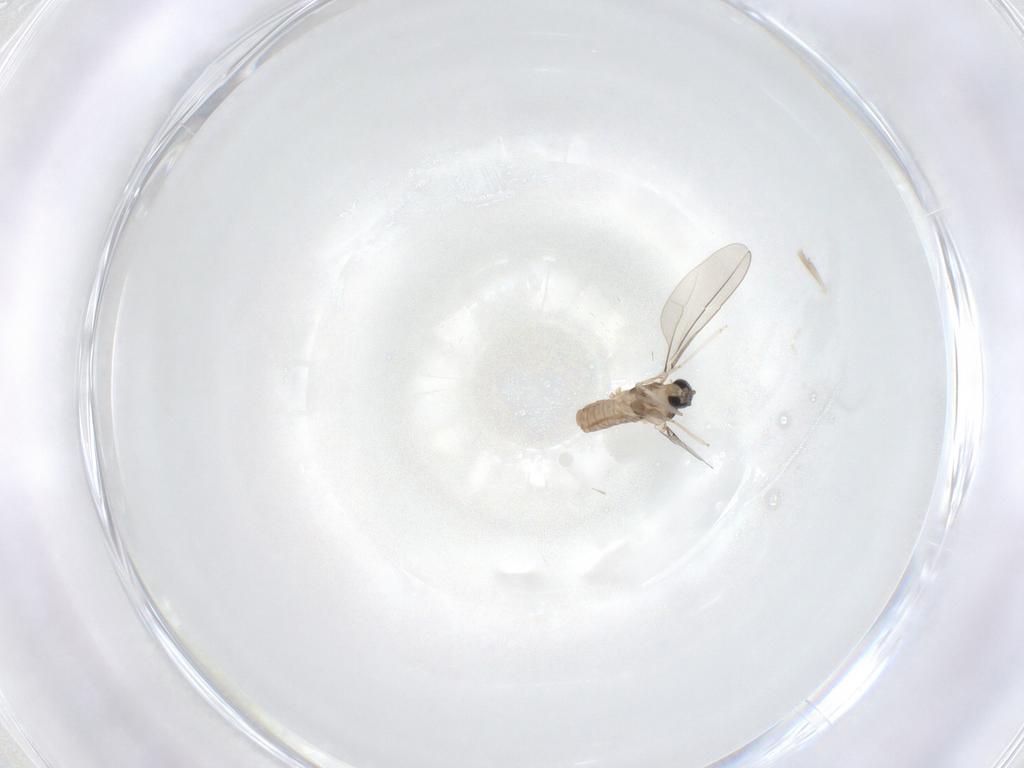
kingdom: Animalia
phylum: Arthropoda
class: Insecta
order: Diptera
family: Cecidomyiidae
